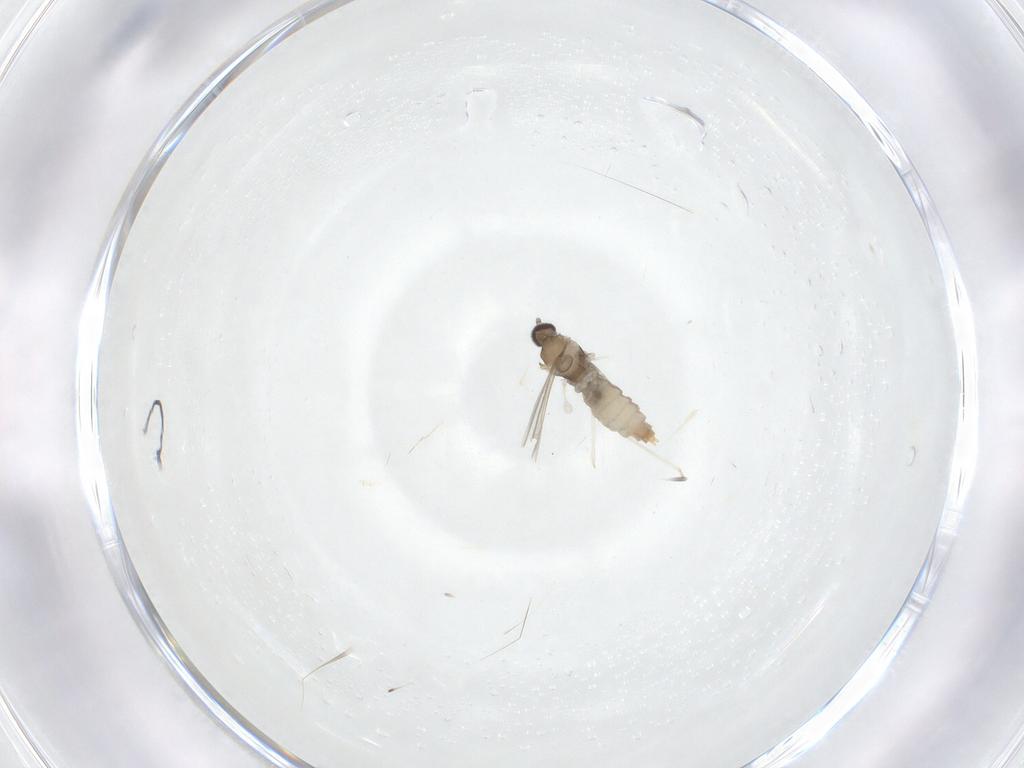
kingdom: Animalia
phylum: Arthropoda
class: Insecta
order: Diptera
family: Cecidomyiidae
